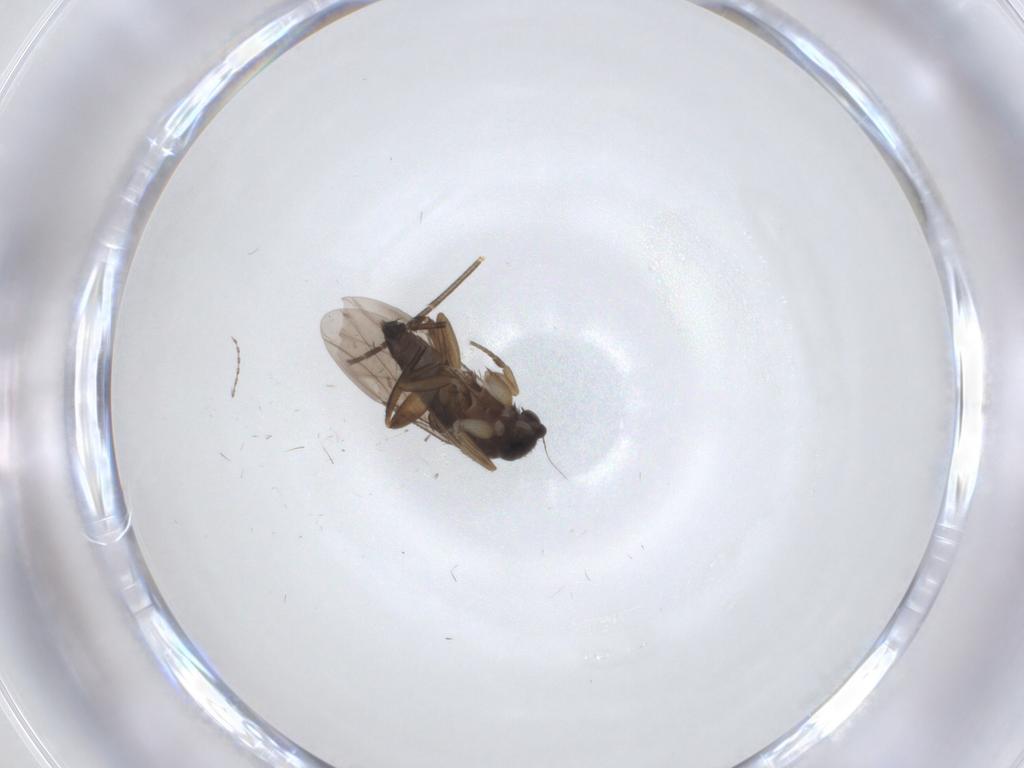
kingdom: Animalia
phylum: Arthropoda
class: Insecta
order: Diptera
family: Phoridae
